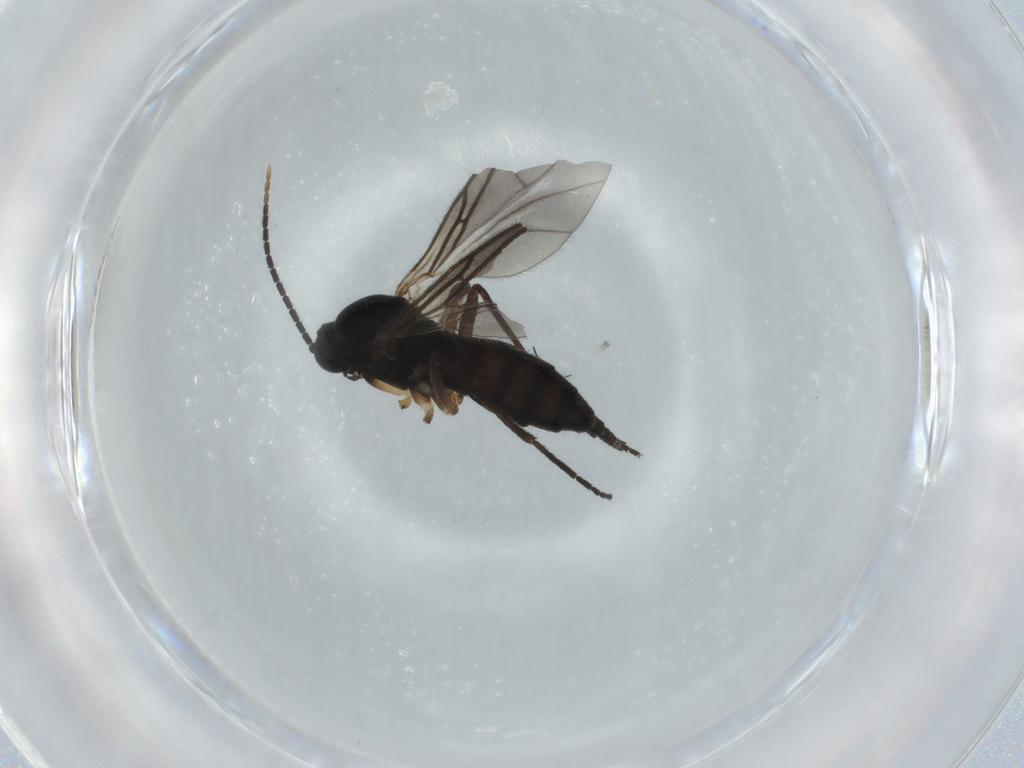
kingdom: Animalia
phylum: Arthropoda
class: Insecta
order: Diptera
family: Sciaridae
